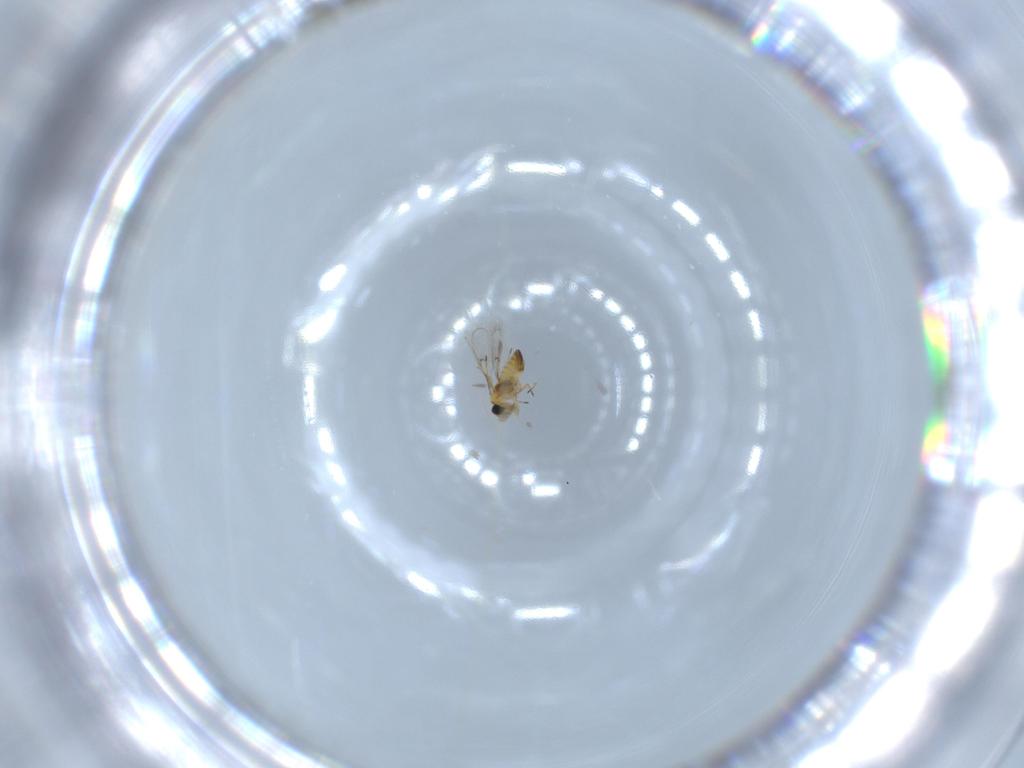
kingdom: Animalia
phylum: Arthropoda
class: Insecta
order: Hymenoptera
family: Trichogrammatidae
